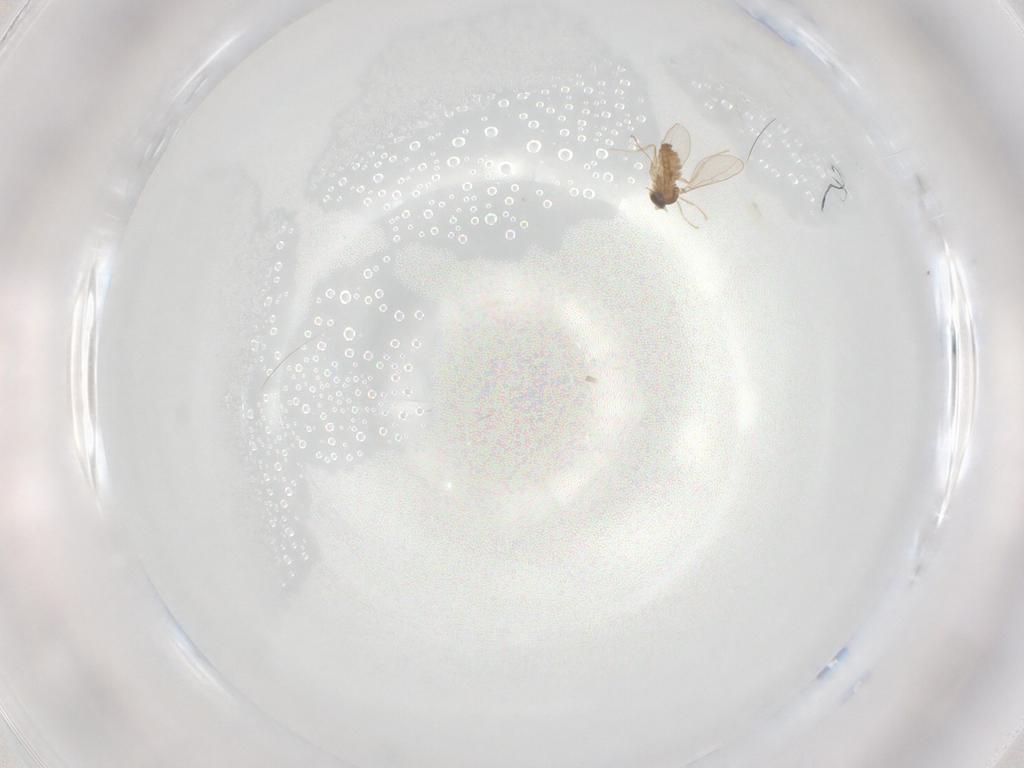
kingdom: Animalia
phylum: Arthropoda
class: Insecta
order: Diptera
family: Cecidomyiidae
